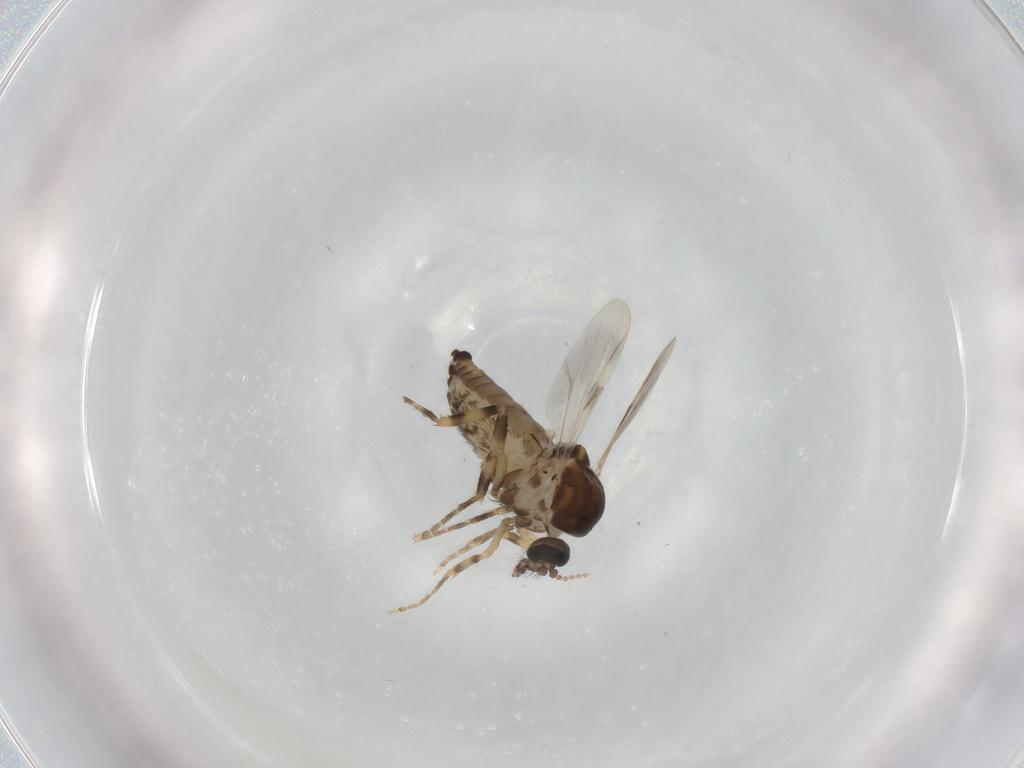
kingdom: Animalia
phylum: Arthropoda
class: Insecta
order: Diptera
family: Ceratopogonidae
